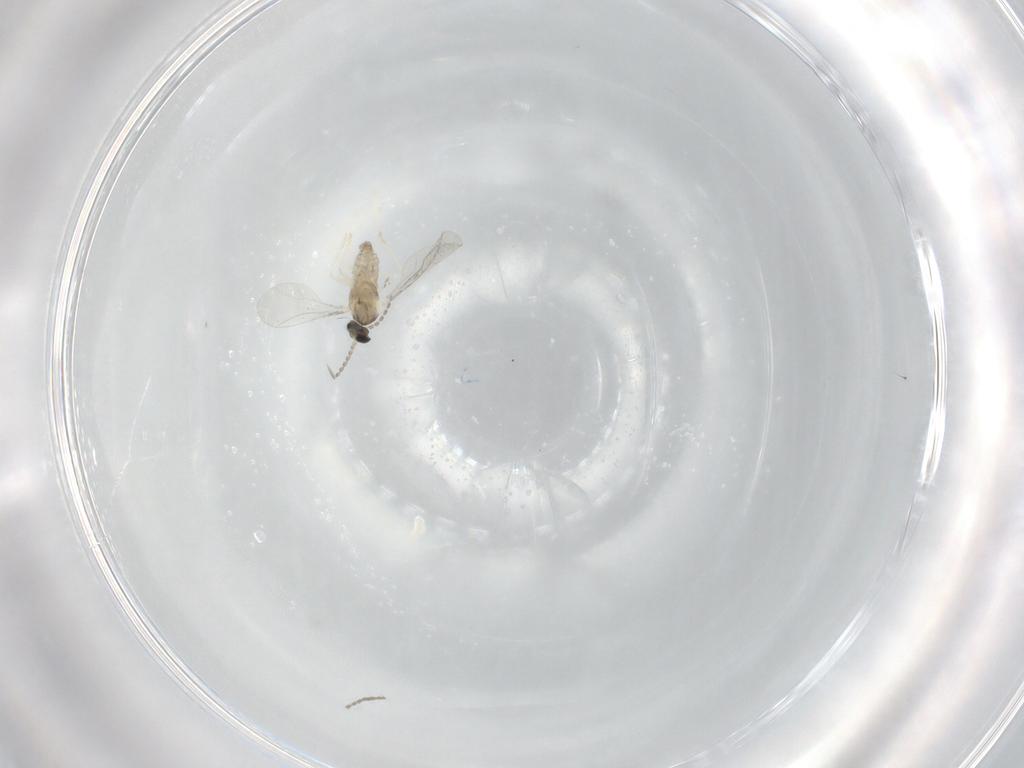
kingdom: Animalia
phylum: Arthropoda
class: Insecta
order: Diptera
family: Cecidomyiidae
